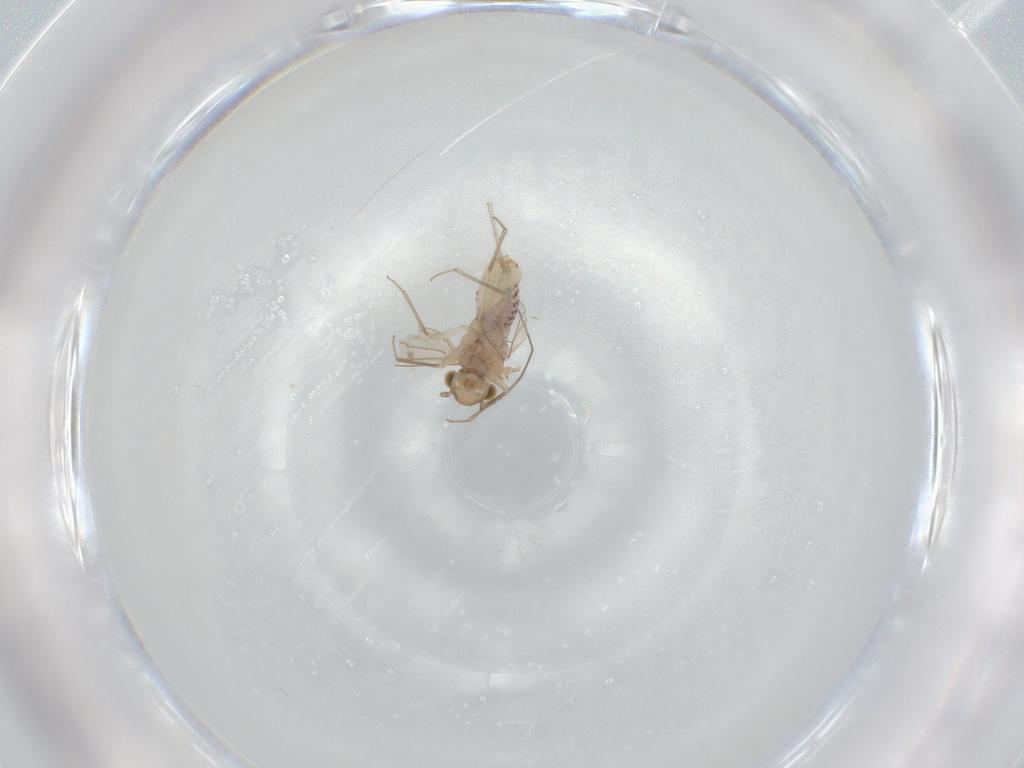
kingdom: Animalia
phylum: Arthropoda
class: Insecta
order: Psocodea
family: Lachesillidae
